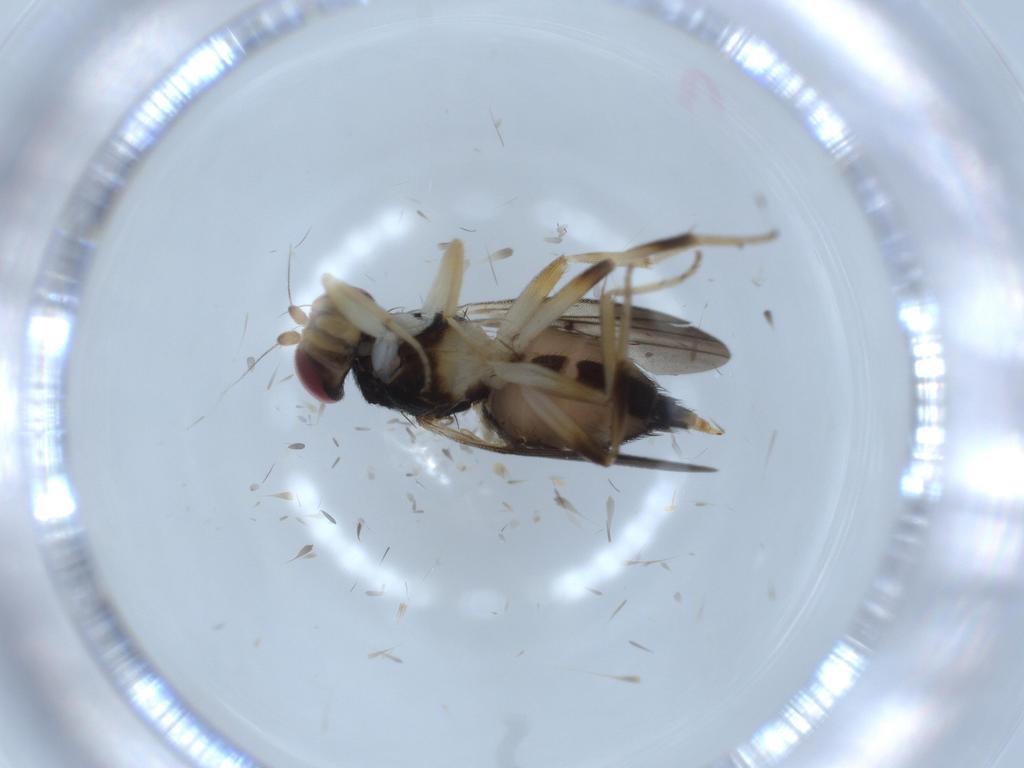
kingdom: Animalia
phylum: Arthropoda
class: Insecta
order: Diptera
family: Clusiidae
